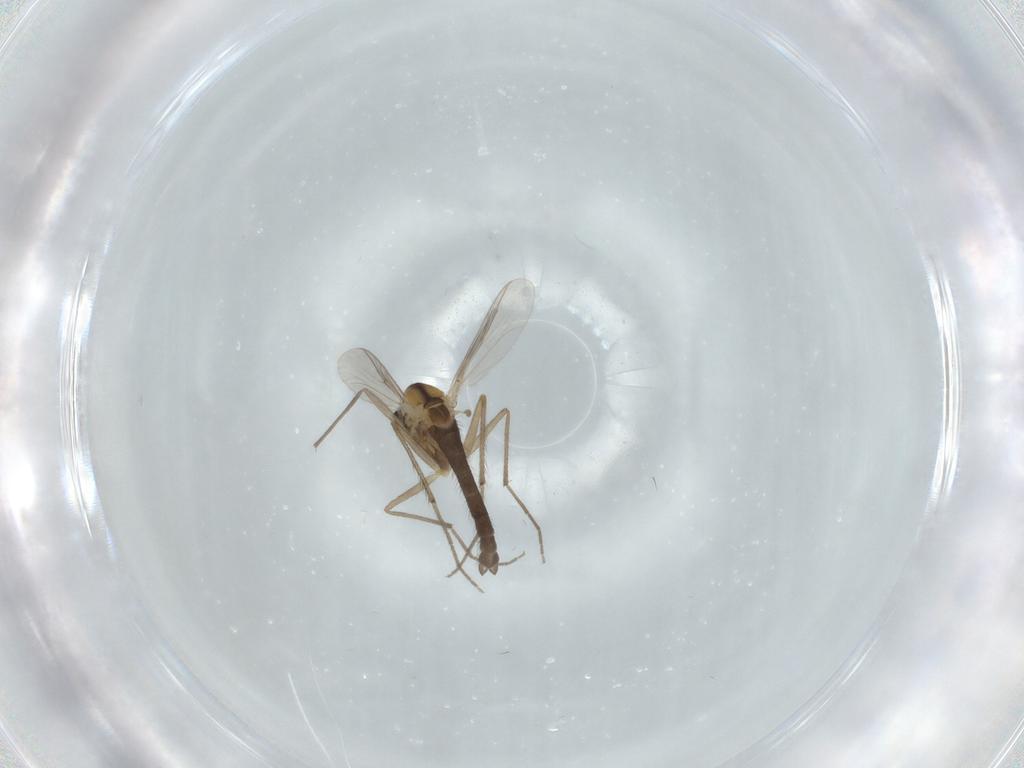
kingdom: Animalia
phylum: Arthropoda
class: Insecta
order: Diptera
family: Chironomidae
